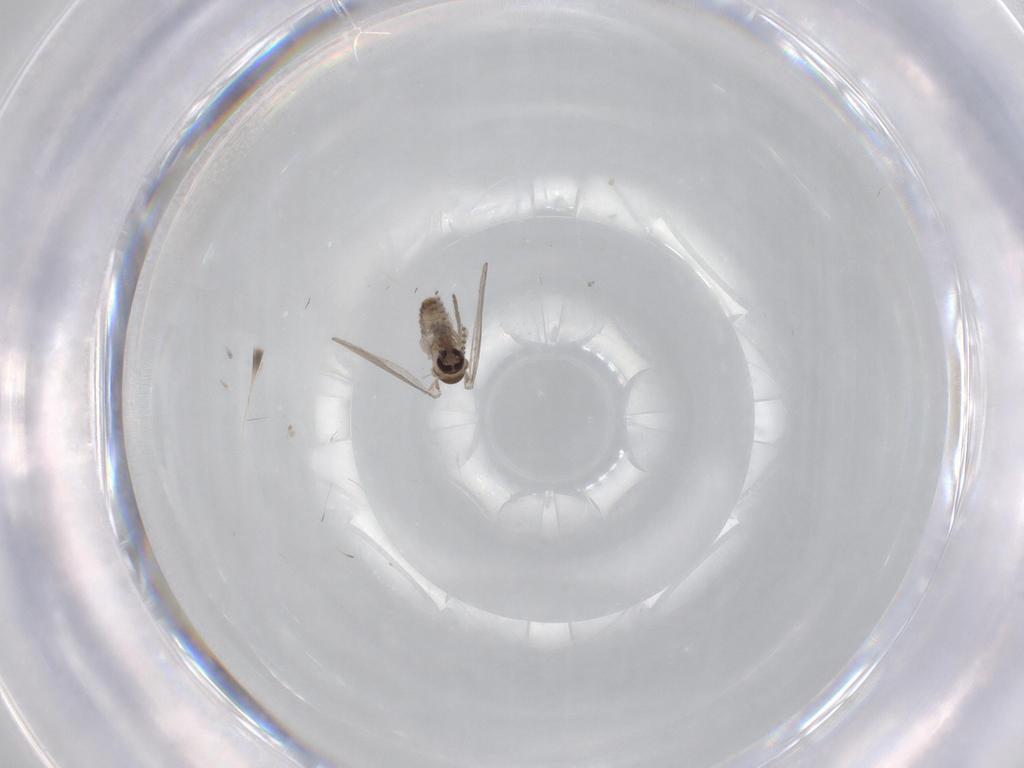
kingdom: Animalia
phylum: Arthropoda
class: Insecta
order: Diptera
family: Psychodidae
